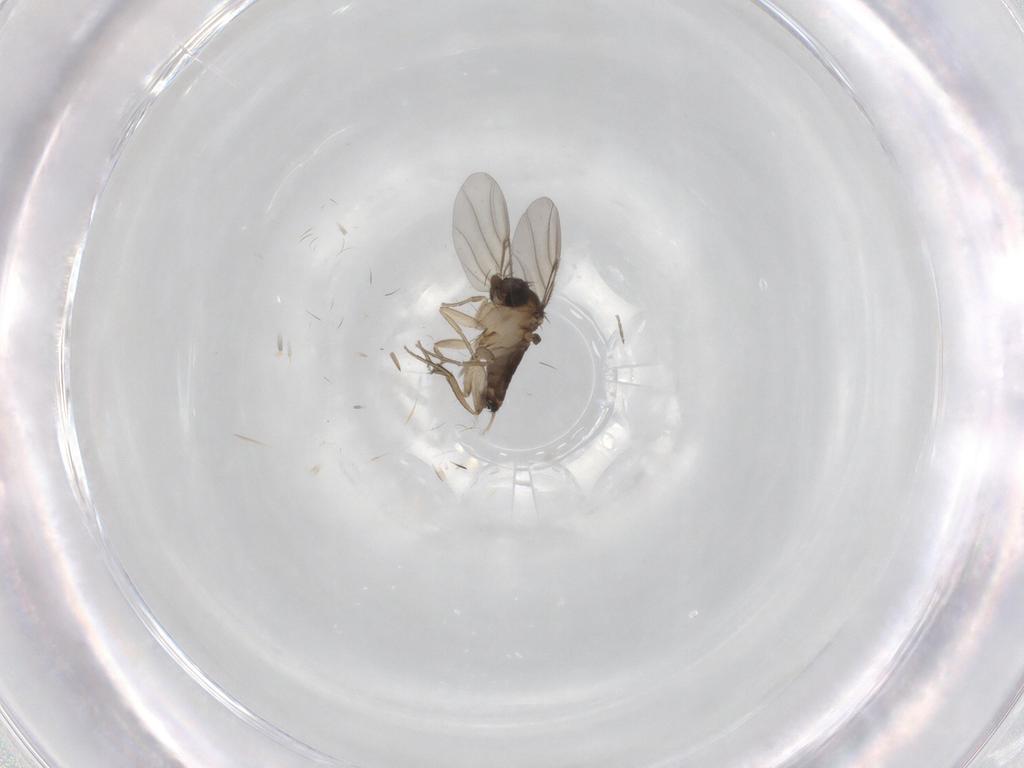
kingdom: Animalia
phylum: Arthropoda
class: Insecta
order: Diptera
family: Phoridae
